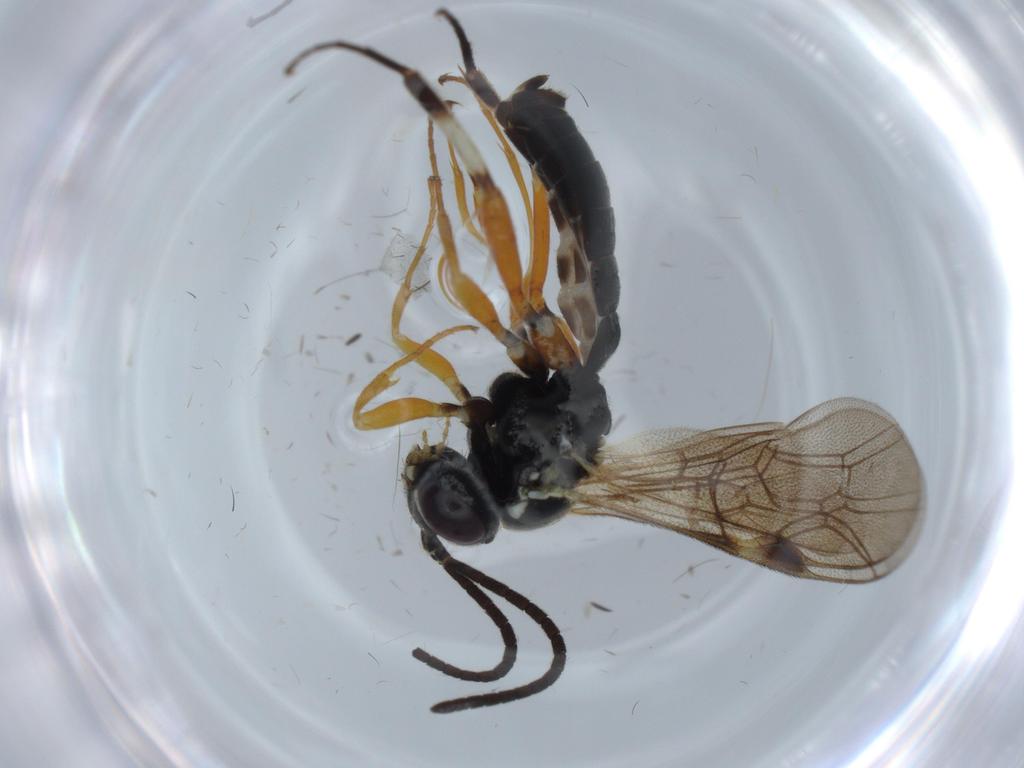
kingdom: Animalia
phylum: Arthropoda
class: Insecta
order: Hymenoptera
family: Ichneumonidae
